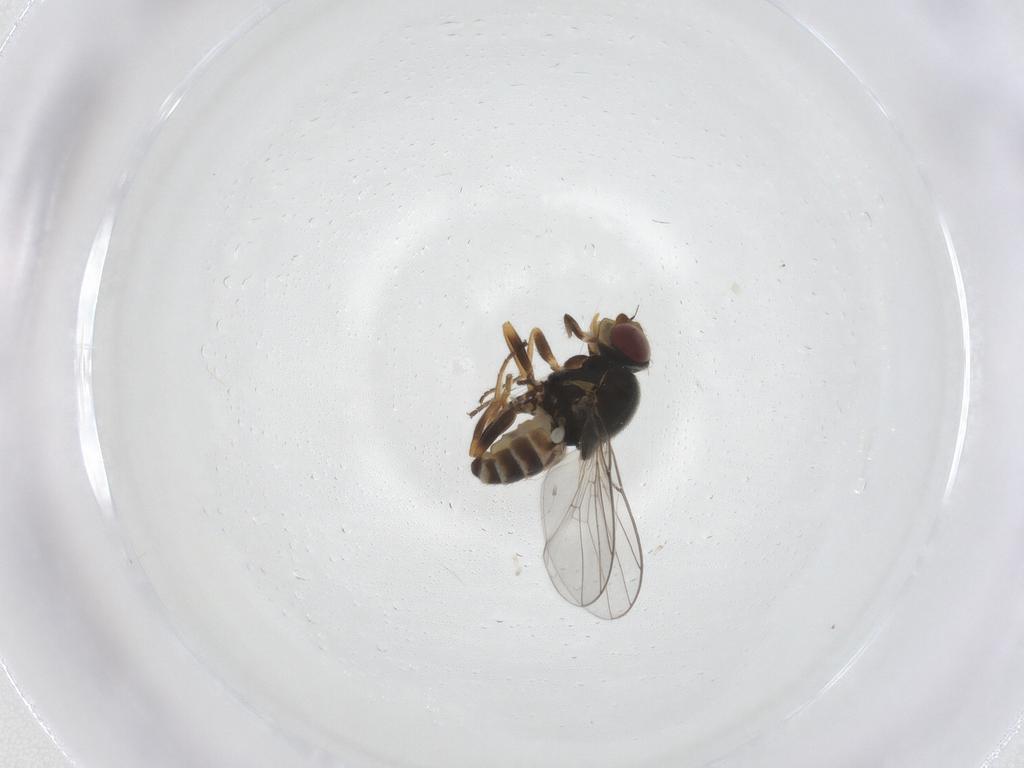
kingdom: Animalia
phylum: Arthropoda
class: Insecta
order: Diptera
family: Chloropidae
